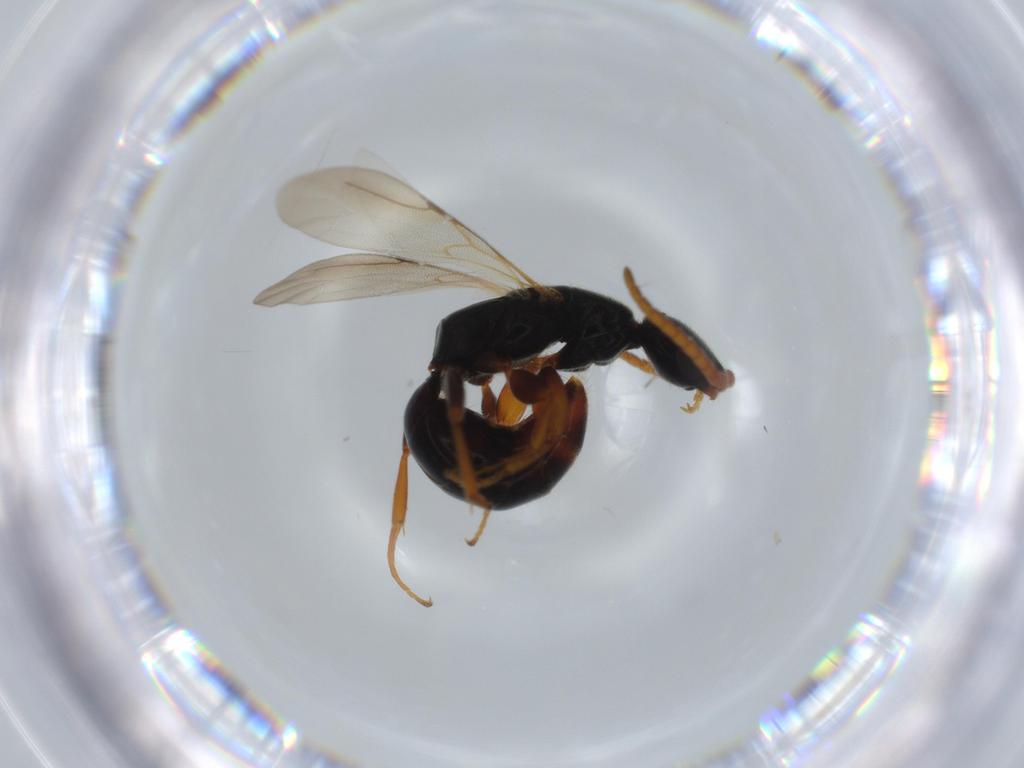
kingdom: Animalia
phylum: Arthropoda
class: Insecta
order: Hymenoptera
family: Bethylidae
